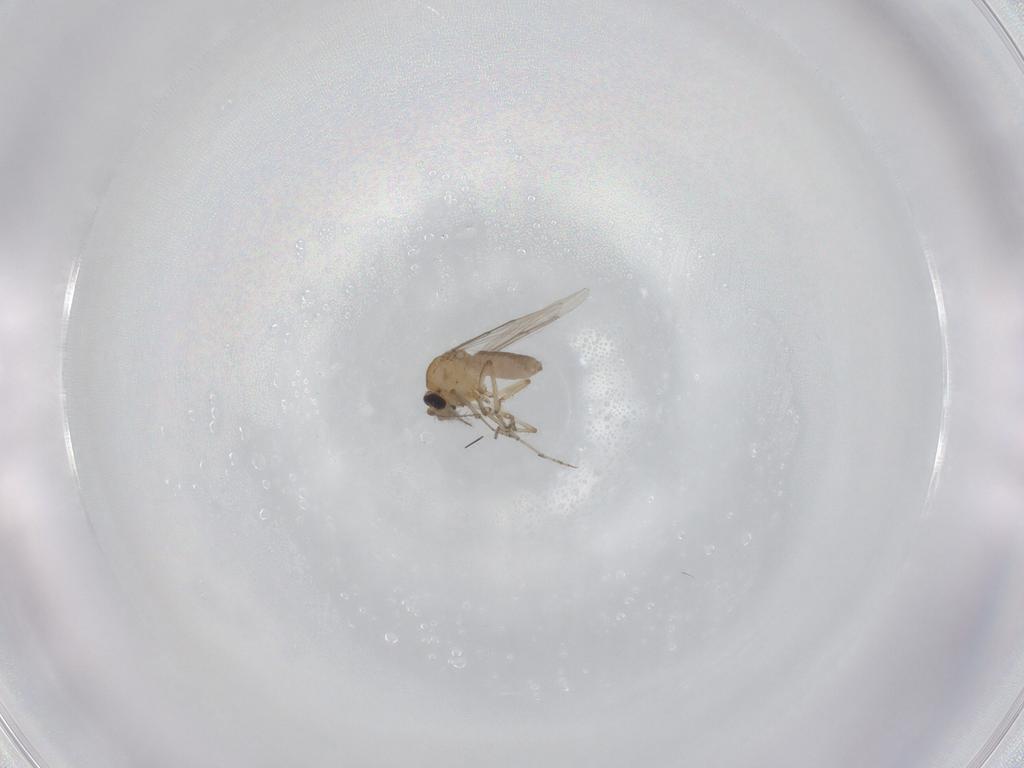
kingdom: Animalia
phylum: Arthropoda
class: Insecta
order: Diptera
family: Ceratopogonidae
